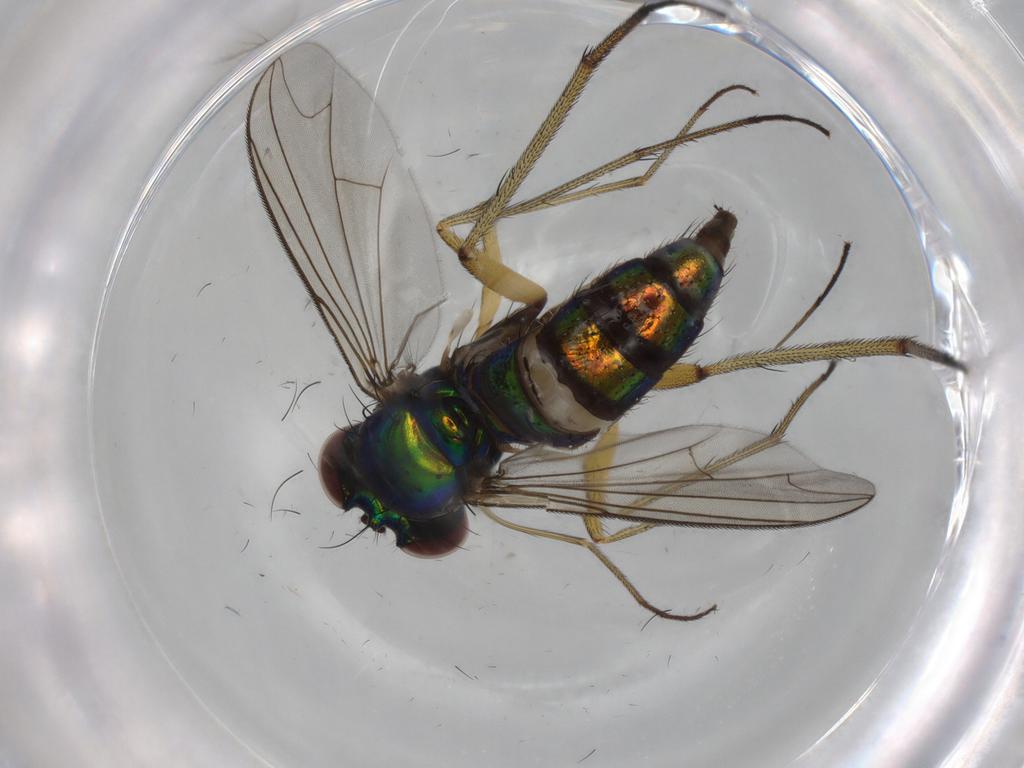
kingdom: Animalia
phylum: Arthropoda
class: Insecta
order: Diptera
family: Dolichopodidae
